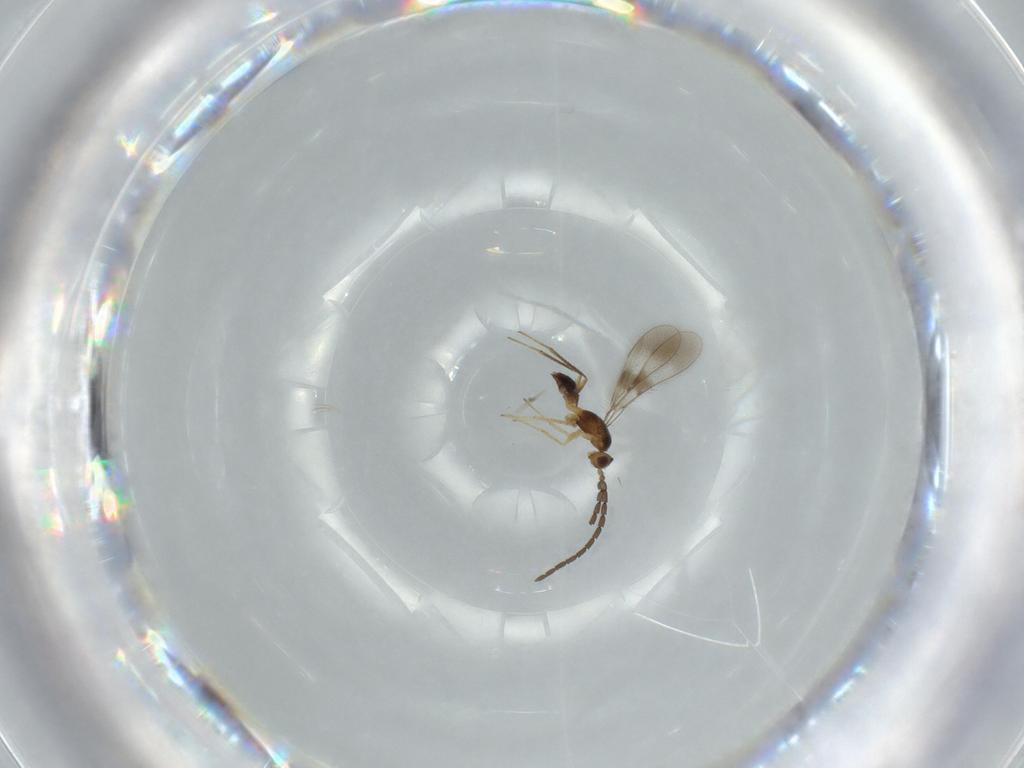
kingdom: Animalia
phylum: Arthropoda
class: Insecta
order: Hymenoptera
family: Mymaridae
